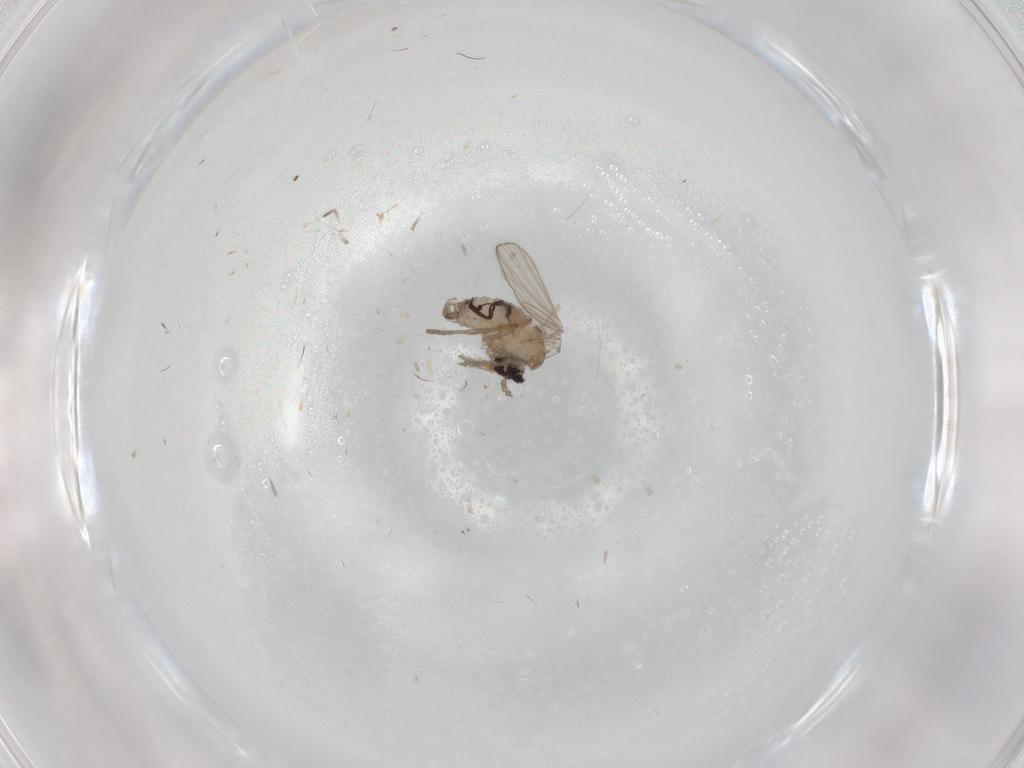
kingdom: Animalia
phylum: Arthropoda
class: Insecta
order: Diptera
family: Psychodidae
